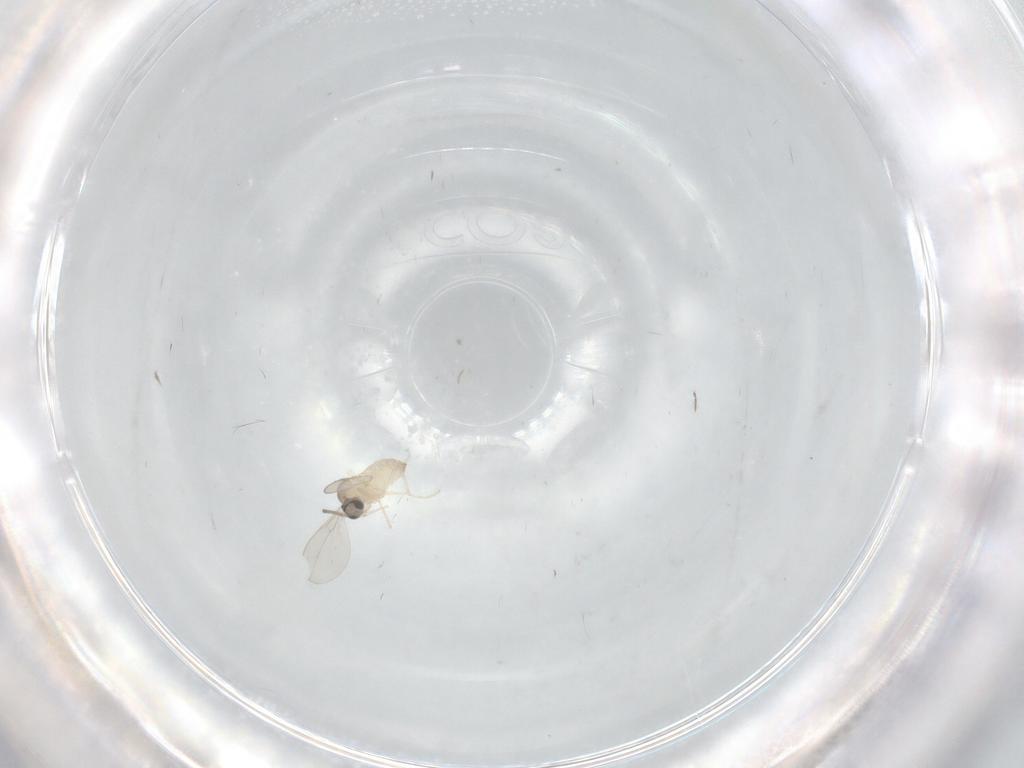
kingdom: Animalia
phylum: Arthropoda
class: Insecta
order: Diptera
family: Cecidomyiidae
